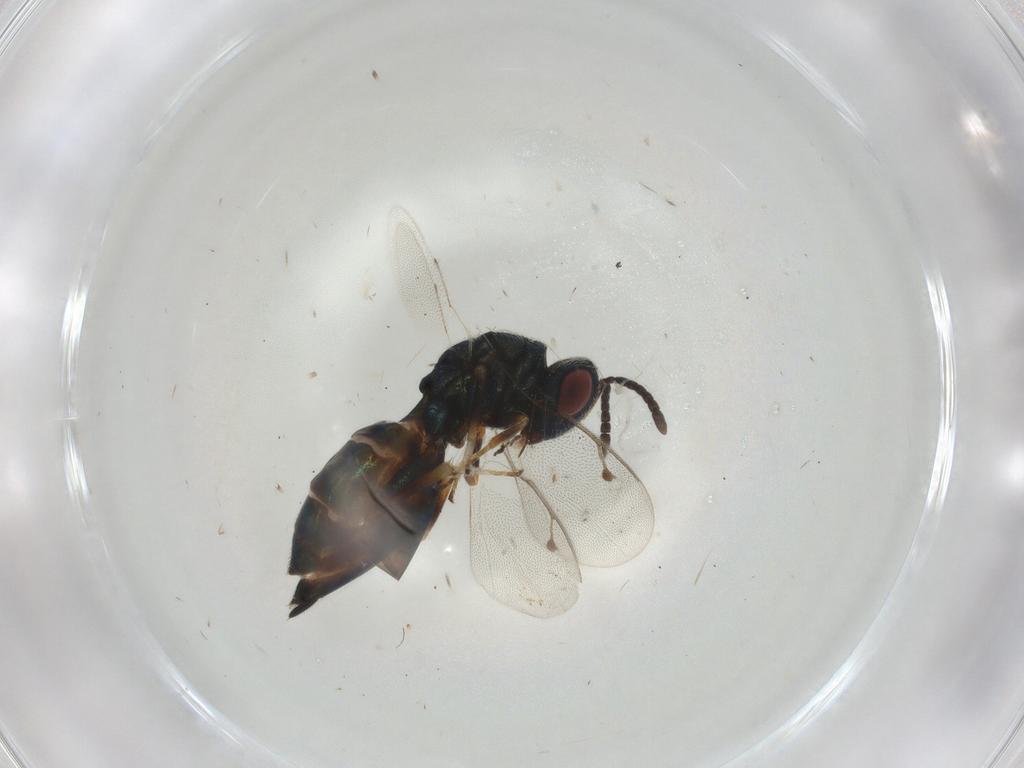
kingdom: Animalia
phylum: Arthropoda
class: Insecta
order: Hymenoptera
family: Pteromalidae
